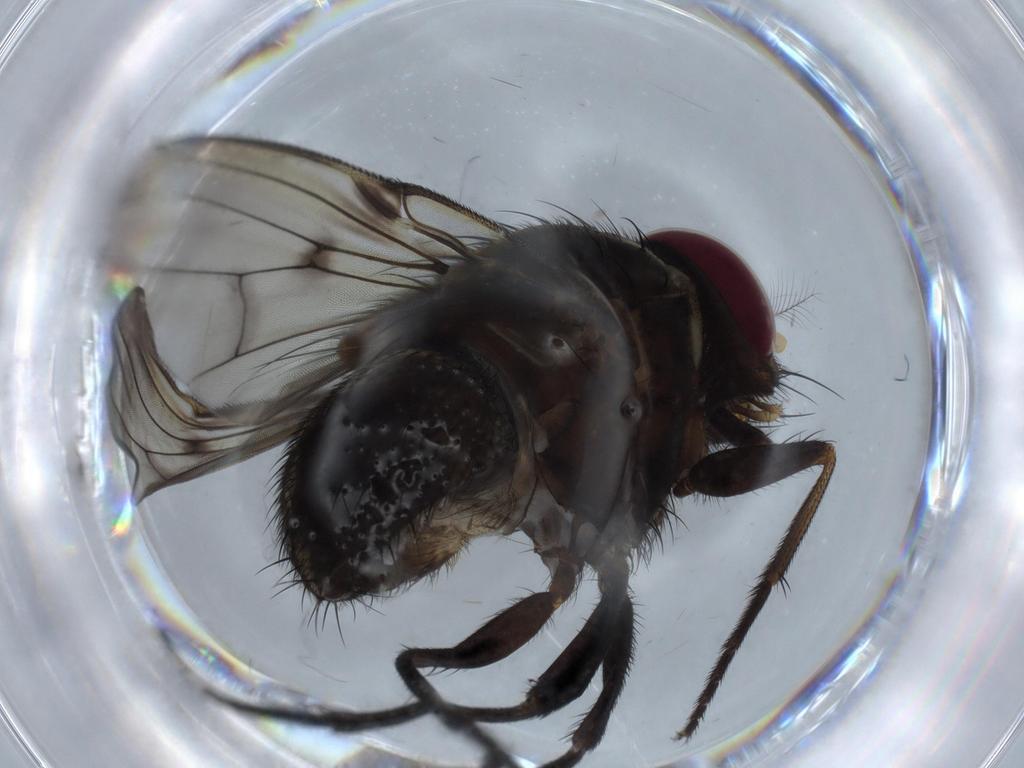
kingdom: Animalia
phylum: Arthropoda
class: Insecta
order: Diptera
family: Muscidae
